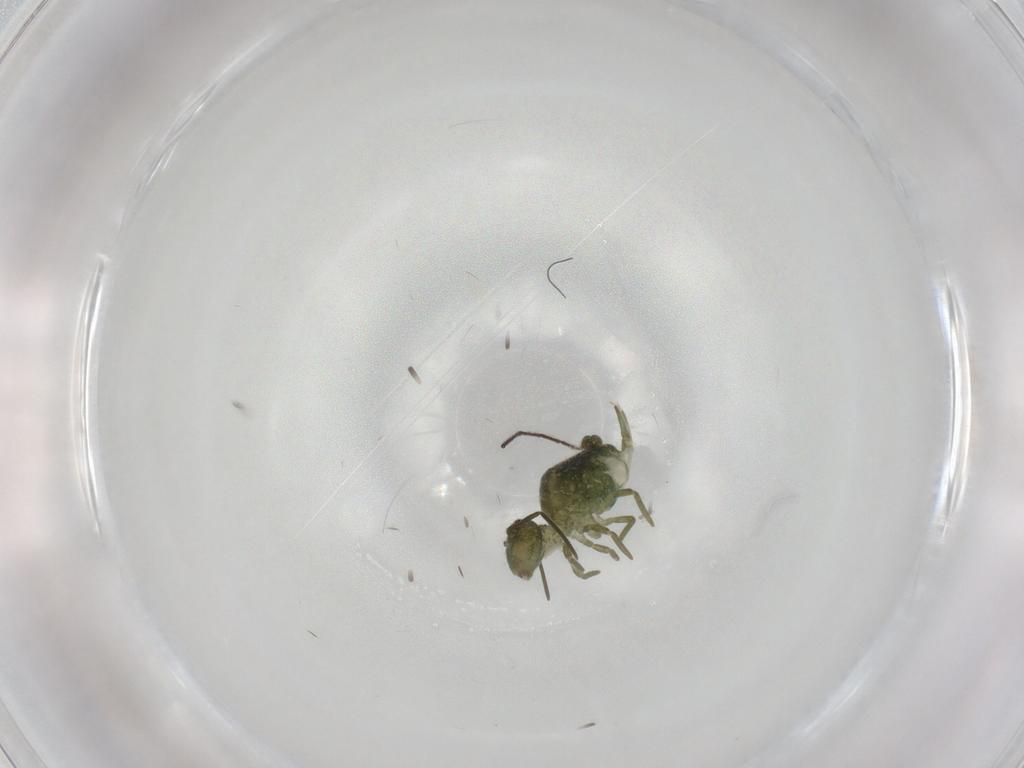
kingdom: Animalia
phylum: Arthropoda
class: Collembola
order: Symphypleona
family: Sminthuridae
